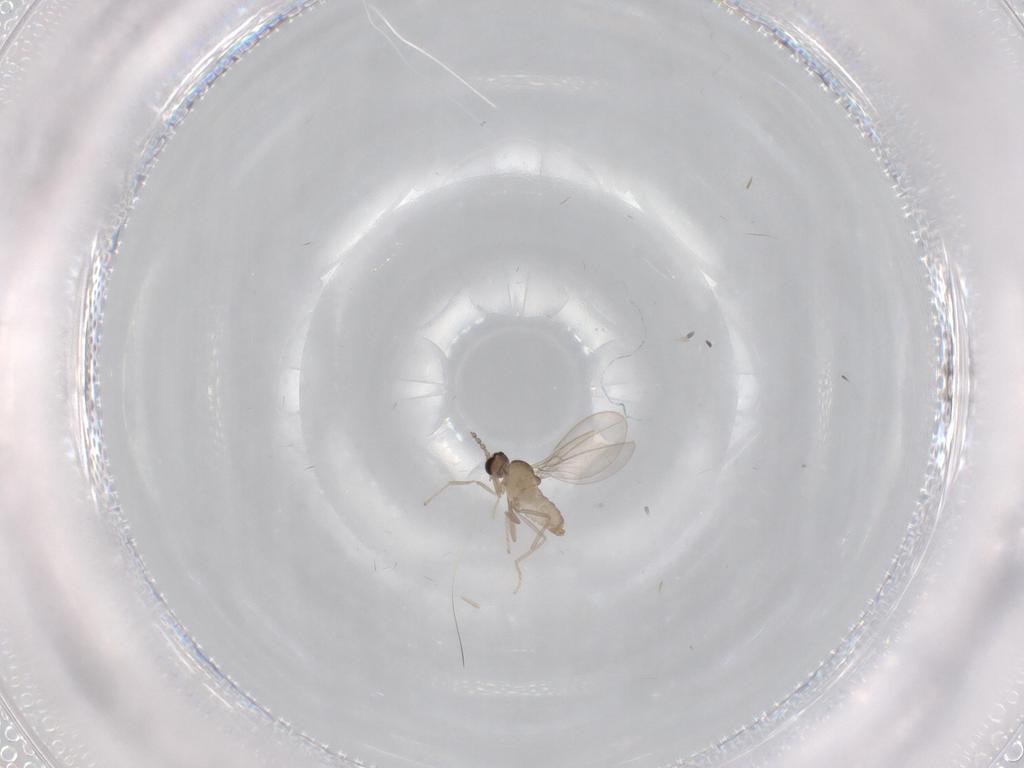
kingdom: Animalia
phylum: Arthropoda
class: Insecta
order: Diptera
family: Cecidomyiidae
